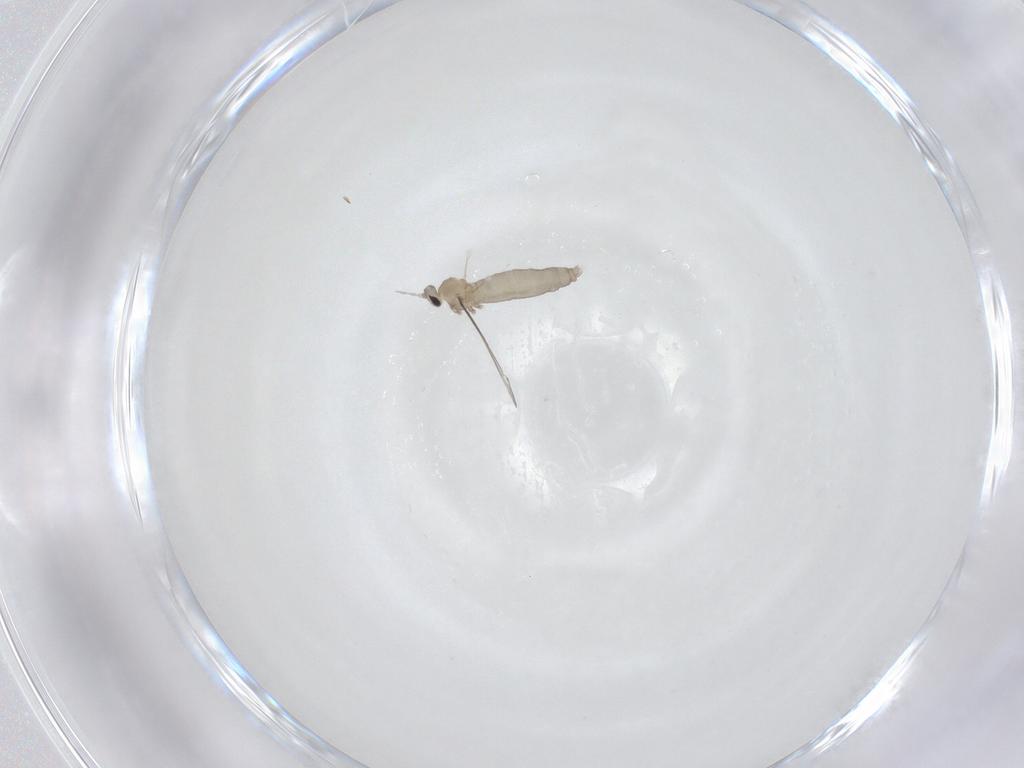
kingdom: Animalia
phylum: Arthropoda
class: Insecta
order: Diptera
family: Cecidomyiidae
